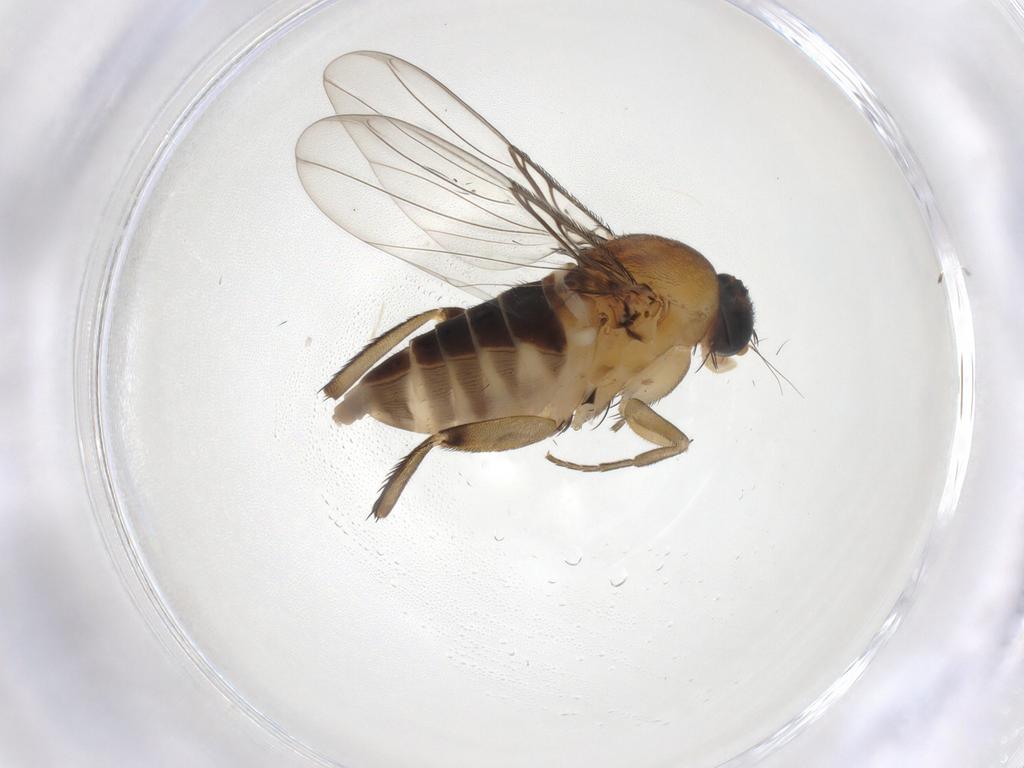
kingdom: Animalia
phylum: Arthropoda
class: Insecta
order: Diptera
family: Phoridae
